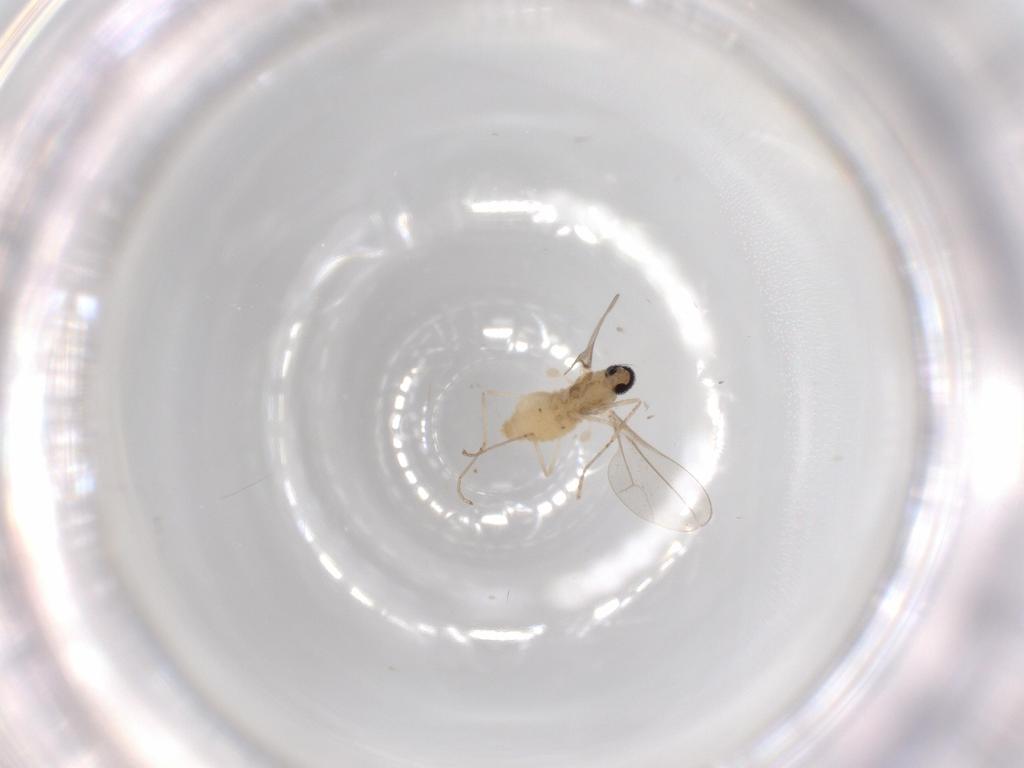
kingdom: Animalia
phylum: Arthropoda
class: Insecta
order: Diptera
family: Cecidomyiidae
